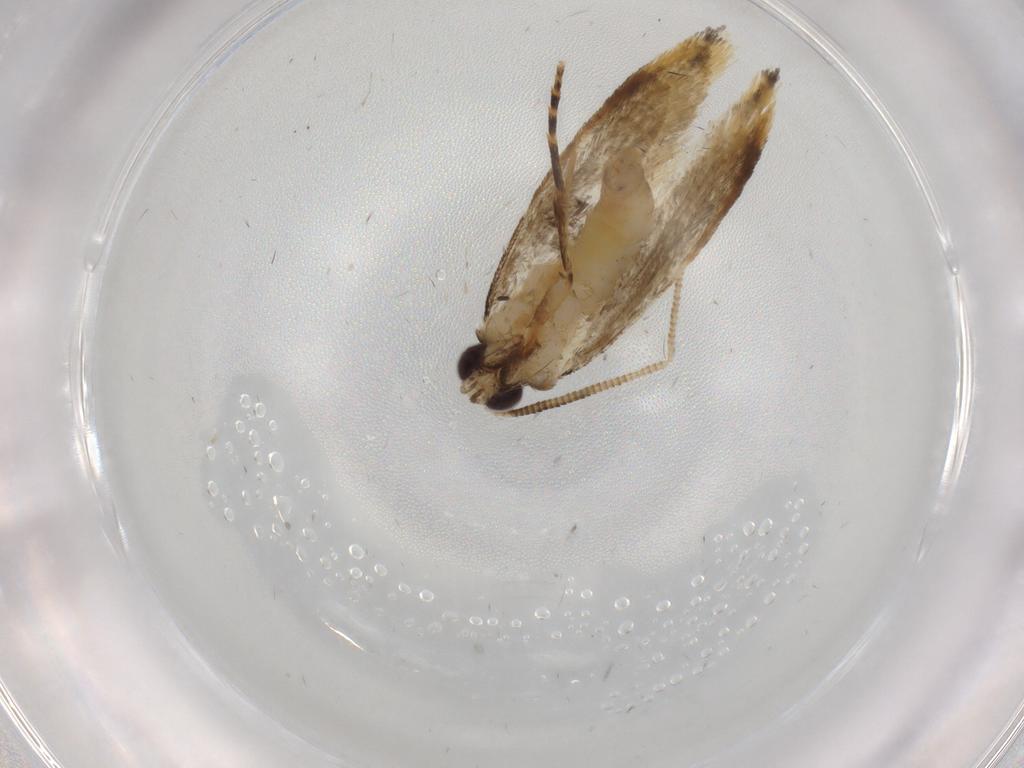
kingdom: Animalia
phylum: Arthropoda
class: Insecta
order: Lepidoptera
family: Tineidae
